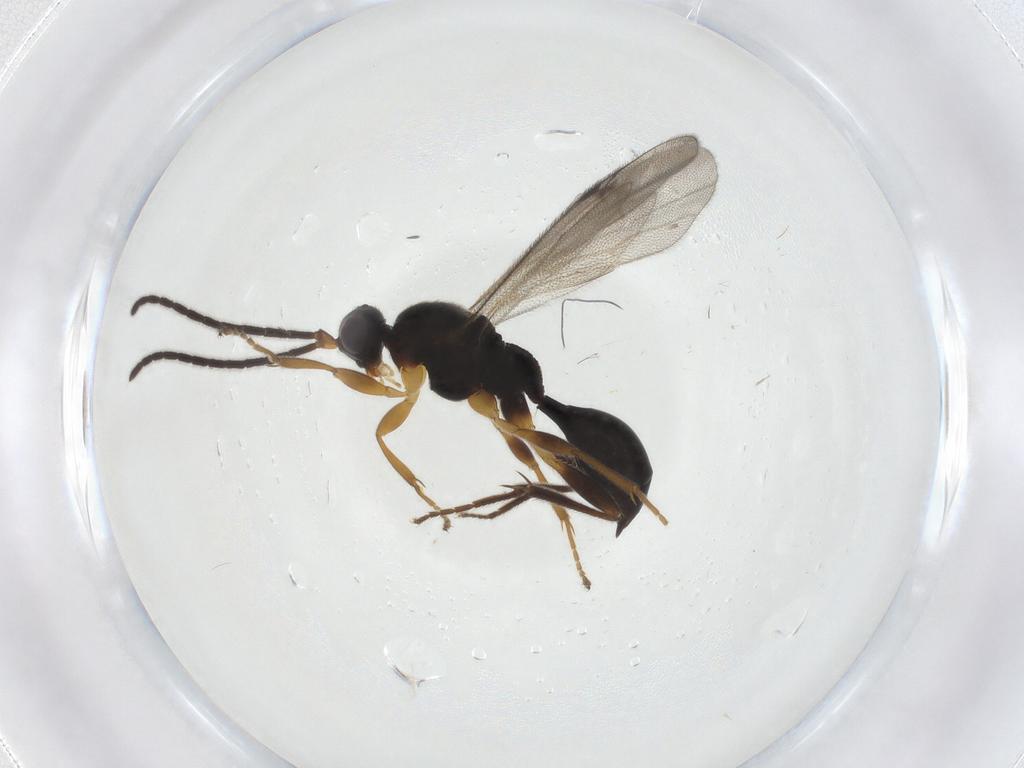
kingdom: Animalia
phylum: Arthropoda
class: Insecta
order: Hymenoptera
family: Proctotrupidae
